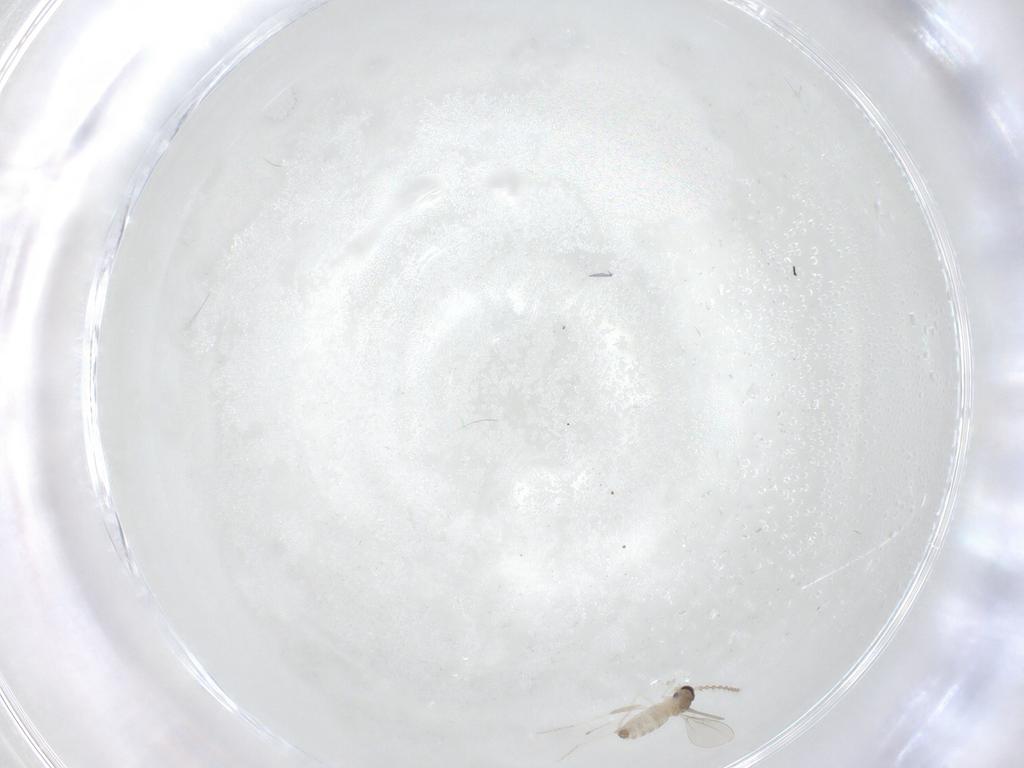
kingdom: Animalia
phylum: Arthropoda
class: Insecta
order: Diptera
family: Cecidomyiidae
